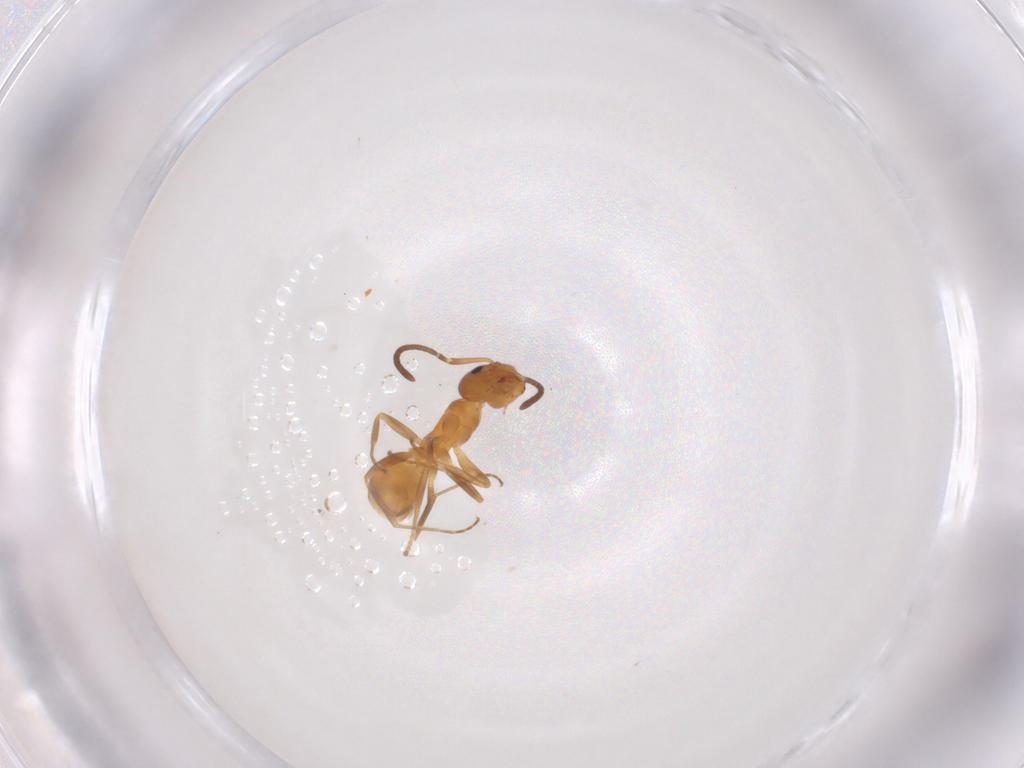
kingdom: Animalia
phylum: Arthropoda
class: Insecta
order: Hymenoptera
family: Formicidae
